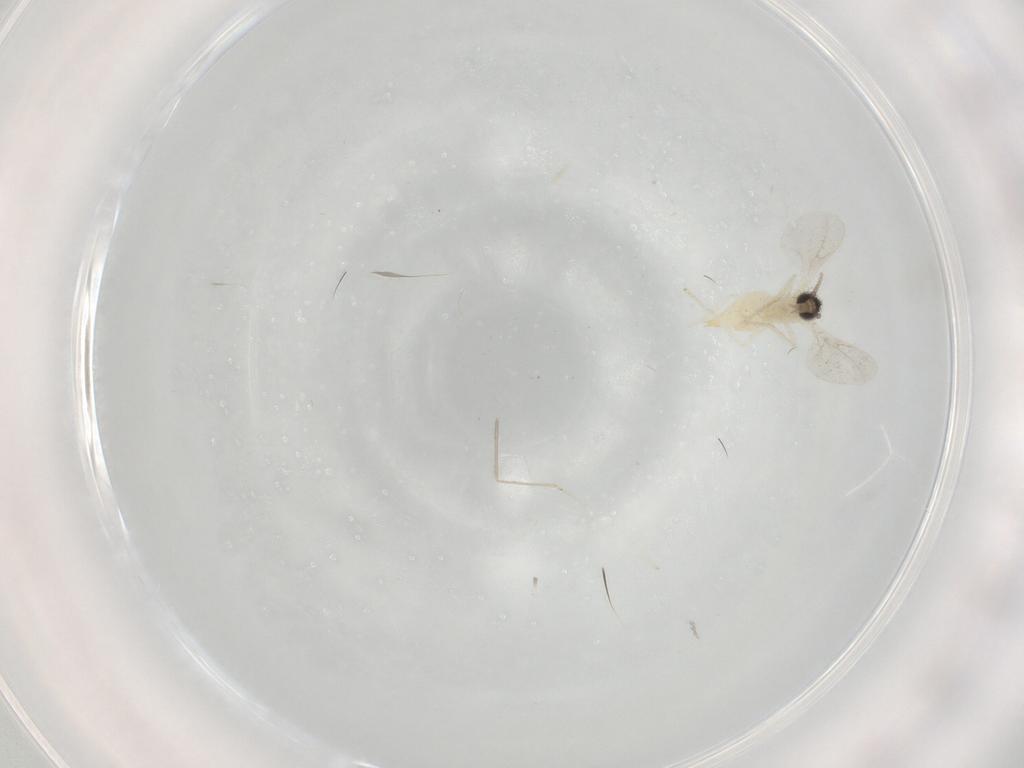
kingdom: Animalia
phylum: Arthropoda
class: Insecta
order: Diptera
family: Cecidomyiidae
